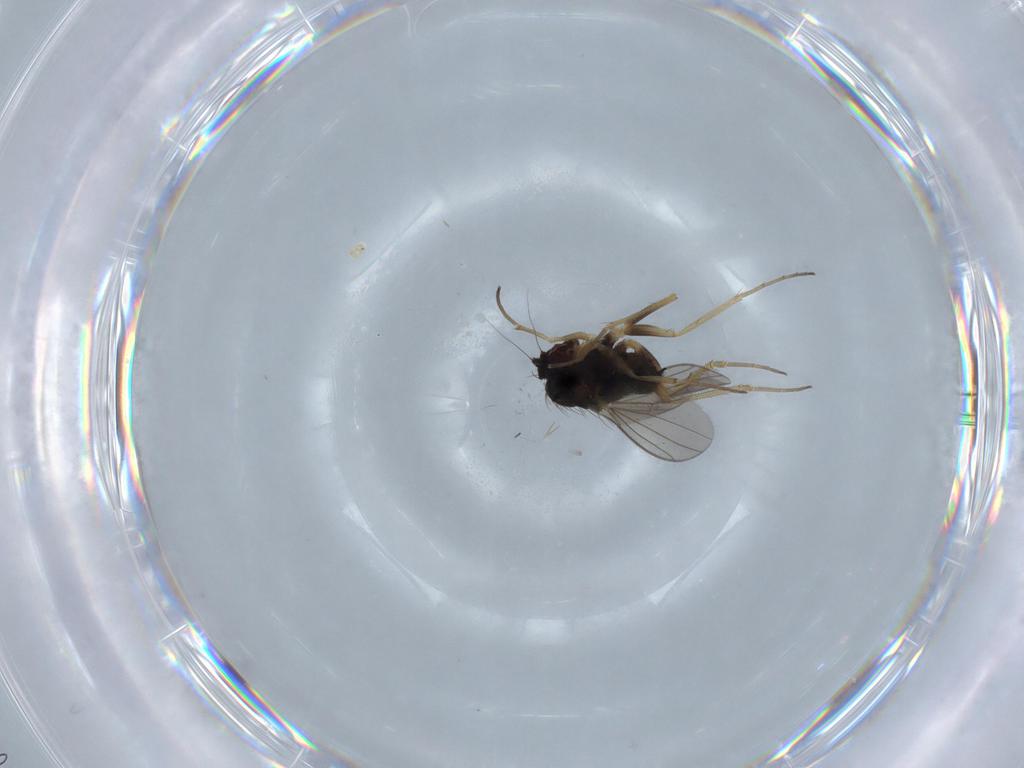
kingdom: Animalia
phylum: Arthropoda
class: Insecta
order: Diptera
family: Dolichopodidae
